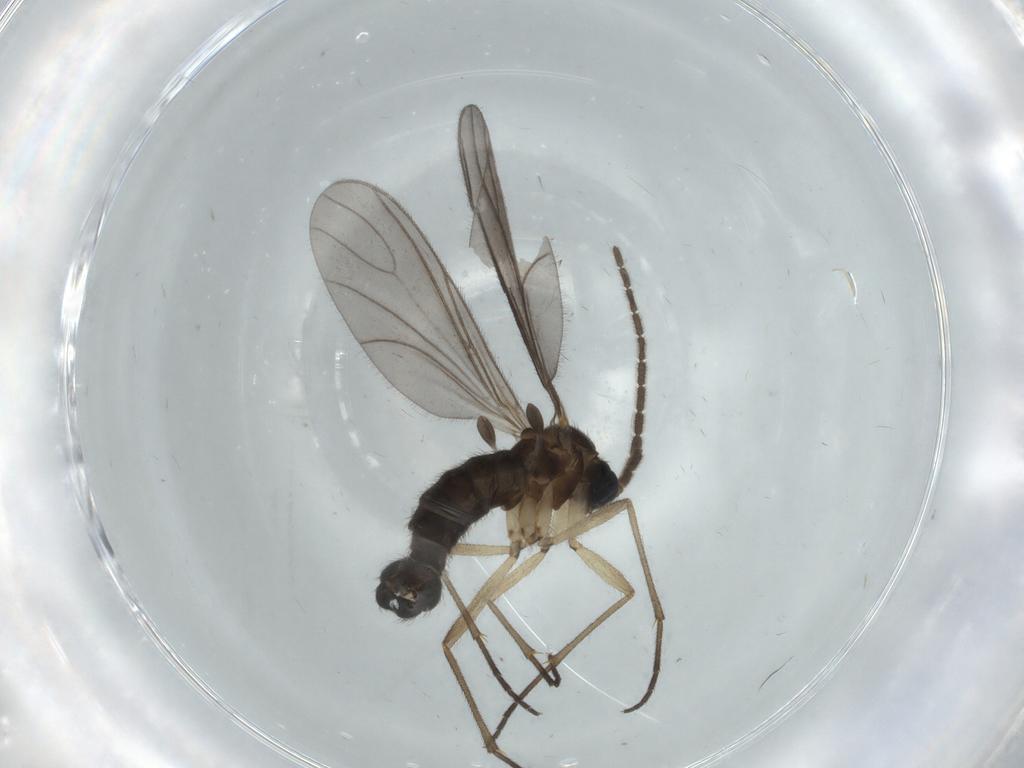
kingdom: Animalia
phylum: Arthropoda
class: Insecta
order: Diptera
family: Sciaridae
